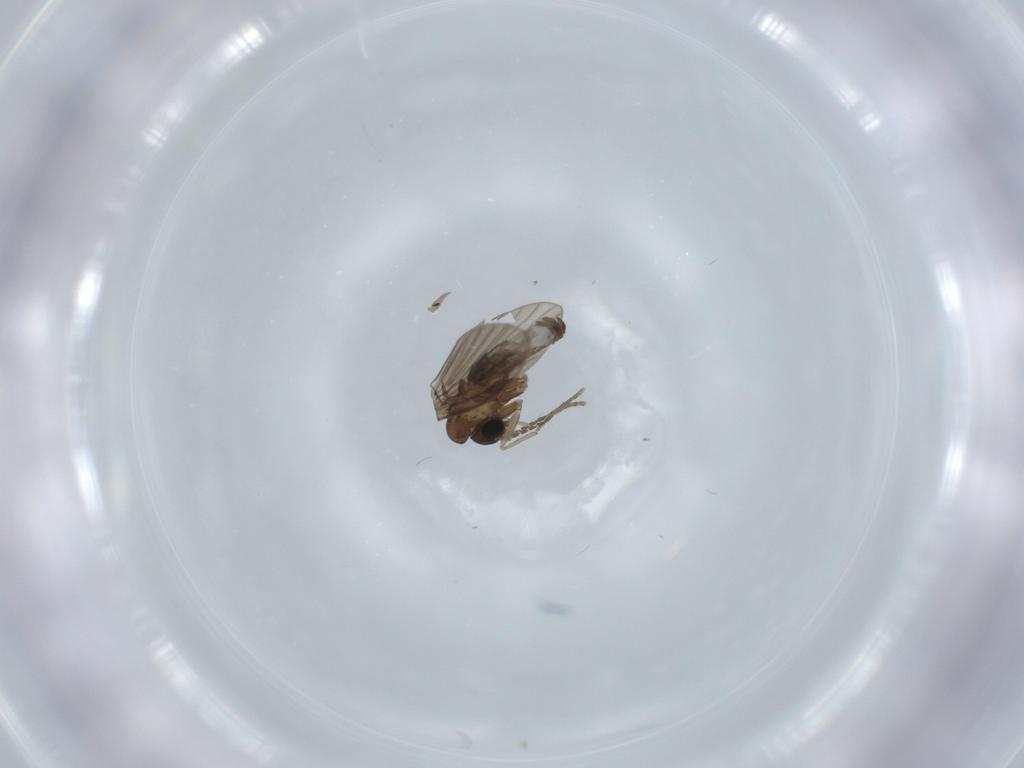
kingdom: Animalia
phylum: Arthropoda
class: Insecta
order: Diptera
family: Psychodidae
